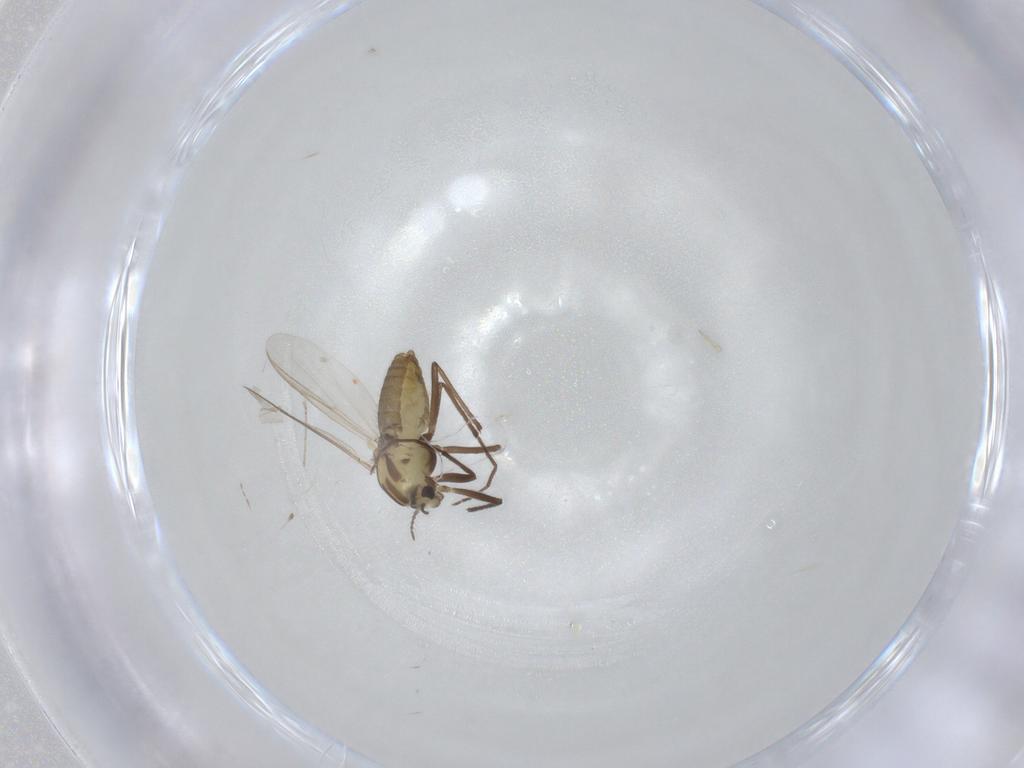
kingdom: Animalia
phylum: Arthropoda
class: Insecta
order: Diptera
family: Chironomidae
